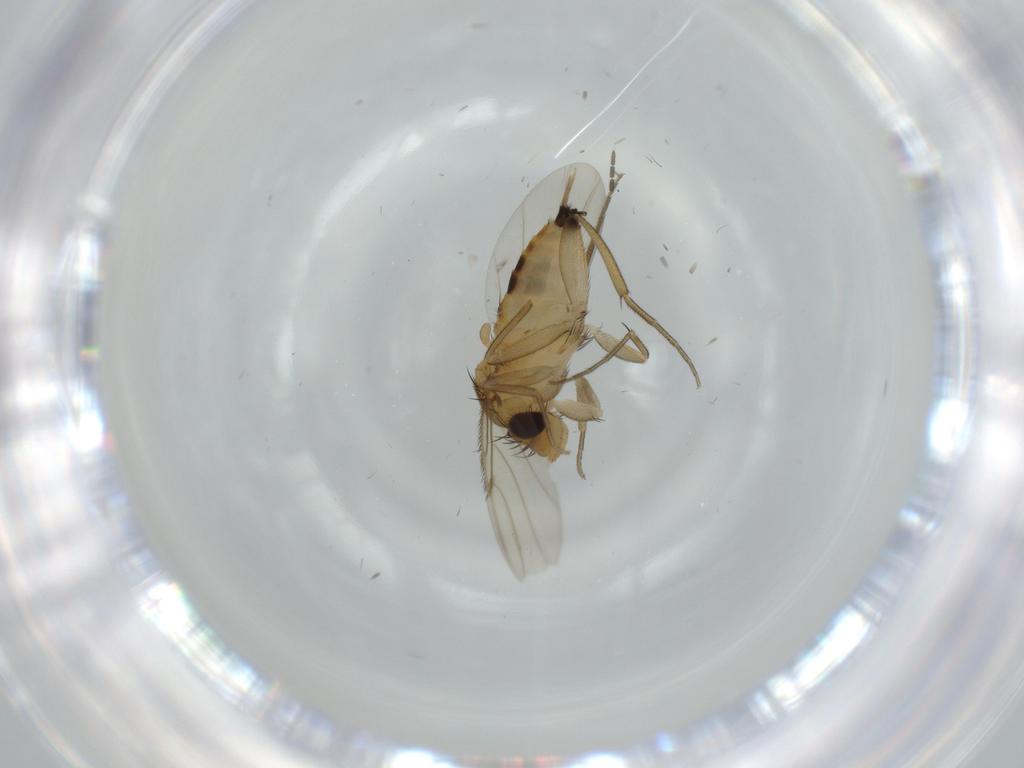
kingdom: Animalia
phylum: Arthropoda
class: Insecta
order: Diptera
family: Phoridae
